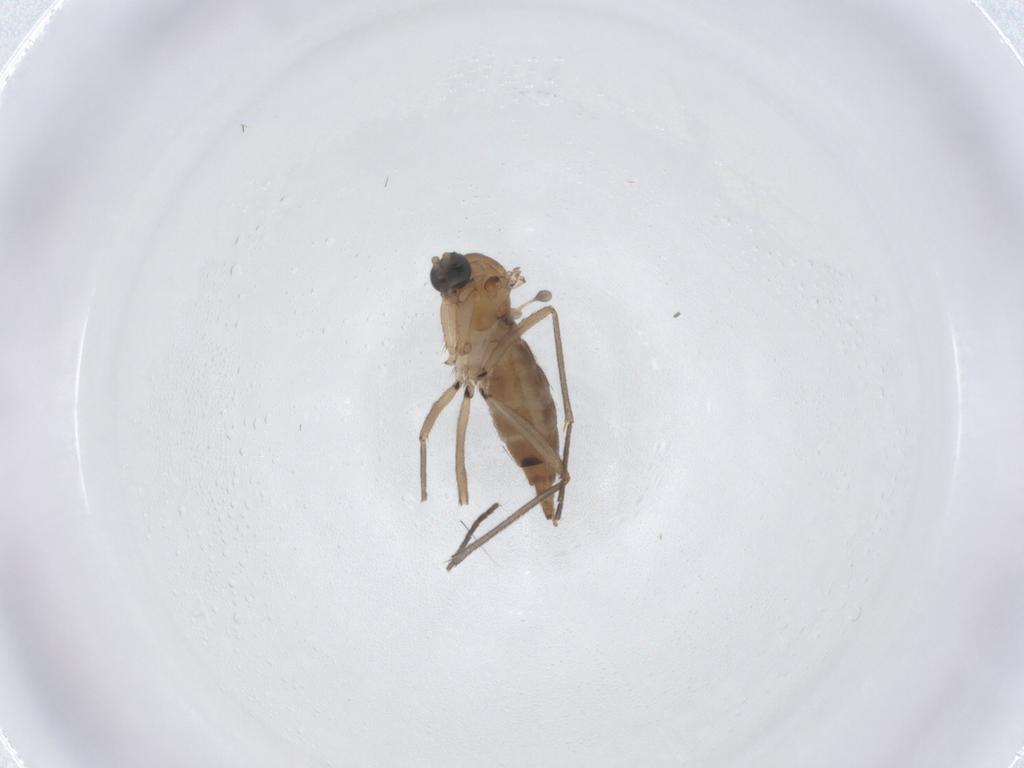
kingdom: Animalia
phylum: Arthropoda
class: Insecta
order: Diptera
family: Sciaridae
